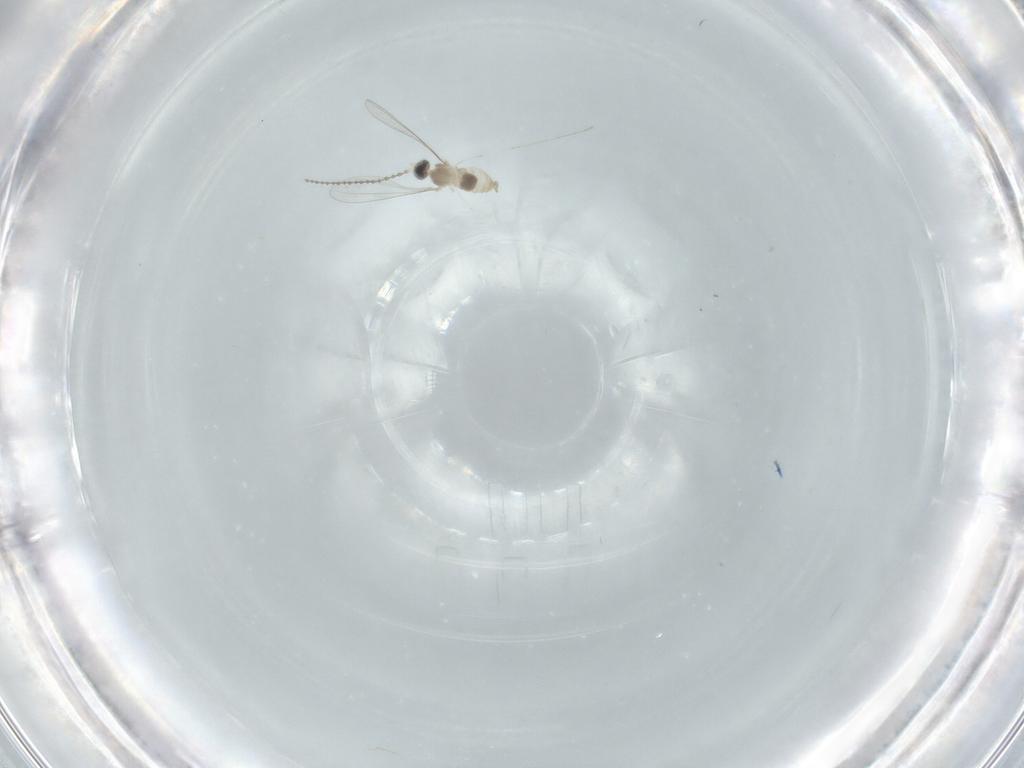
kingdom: Animalia
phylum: Arthropoda
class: Insecta
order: Diptera
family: Cecidomyiidae
